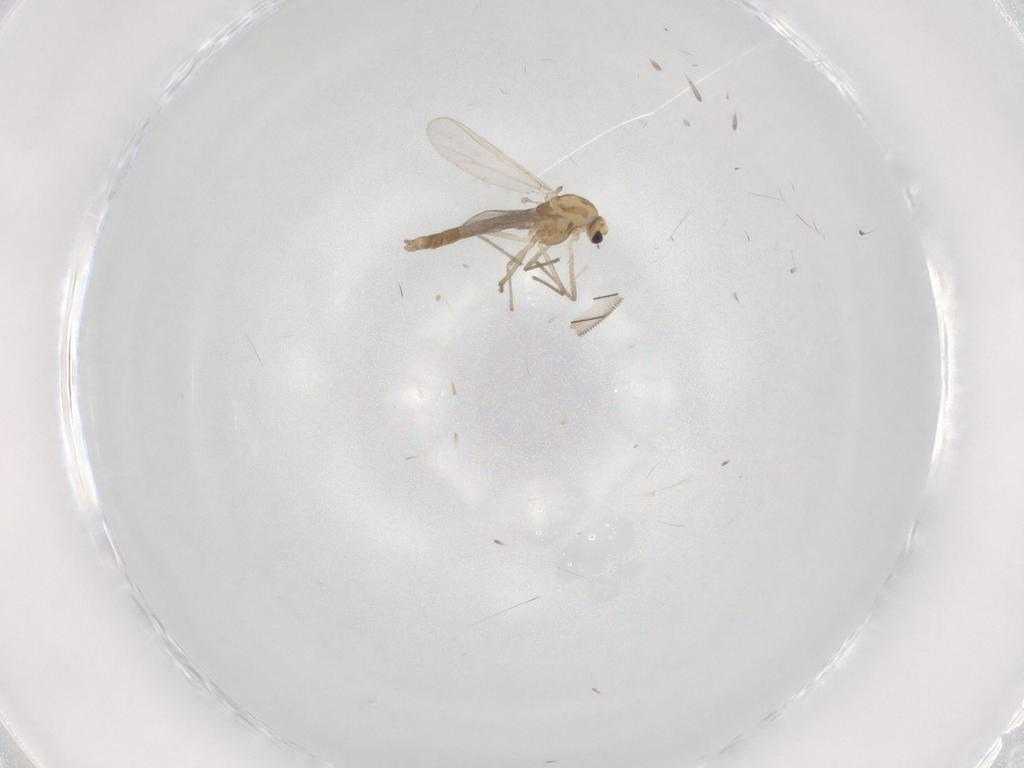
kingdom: Animalia
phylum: Arthropoda
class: Insecta
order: Diptera
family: Chironomidae
